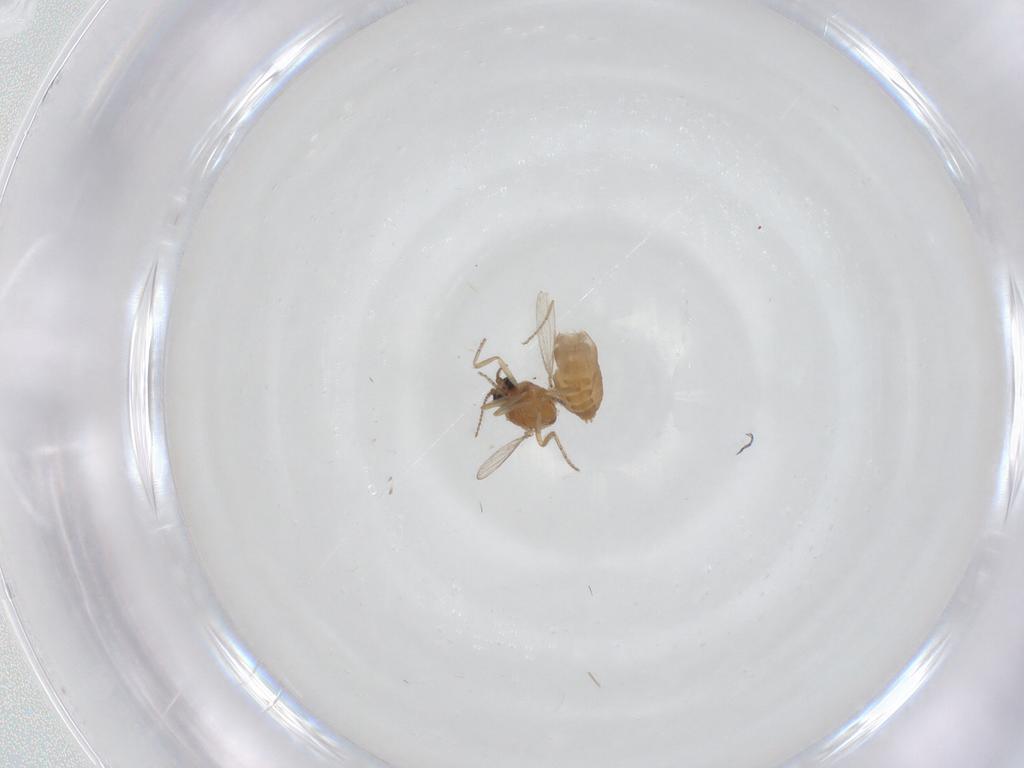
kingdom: Animalia
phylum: Arthropoda
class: Insecta
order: Diptera
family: Ceratopogonidae
